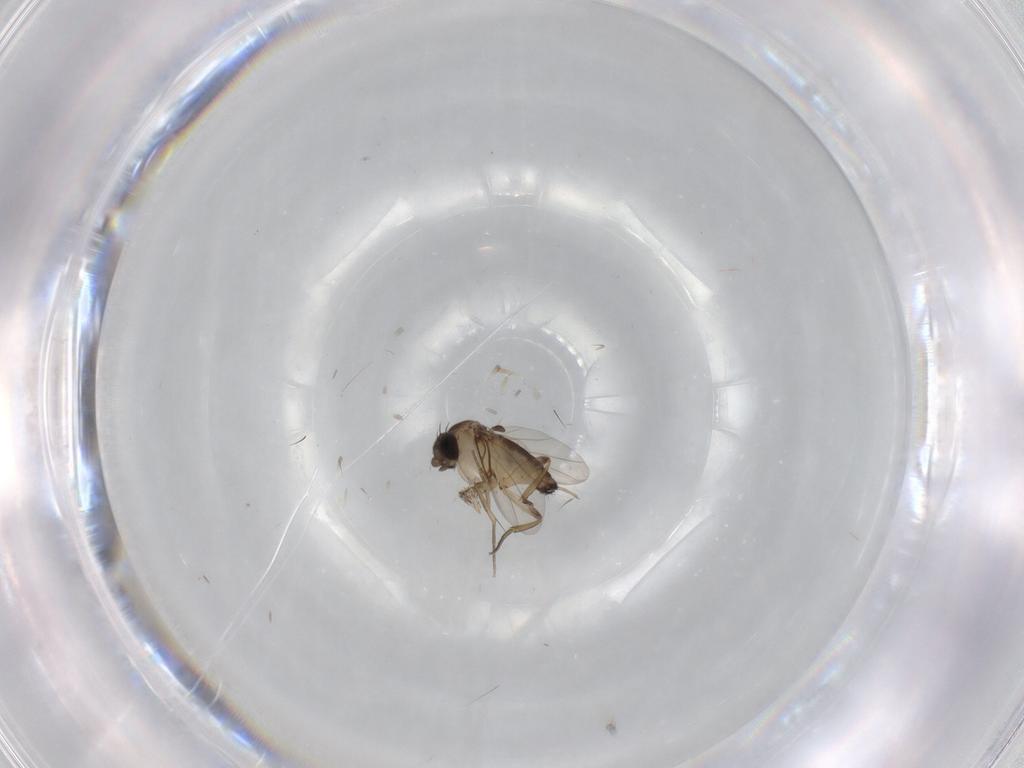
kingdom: Animalia
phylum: Arthropoda
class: Insecta
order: Diptera
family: Phoridae
